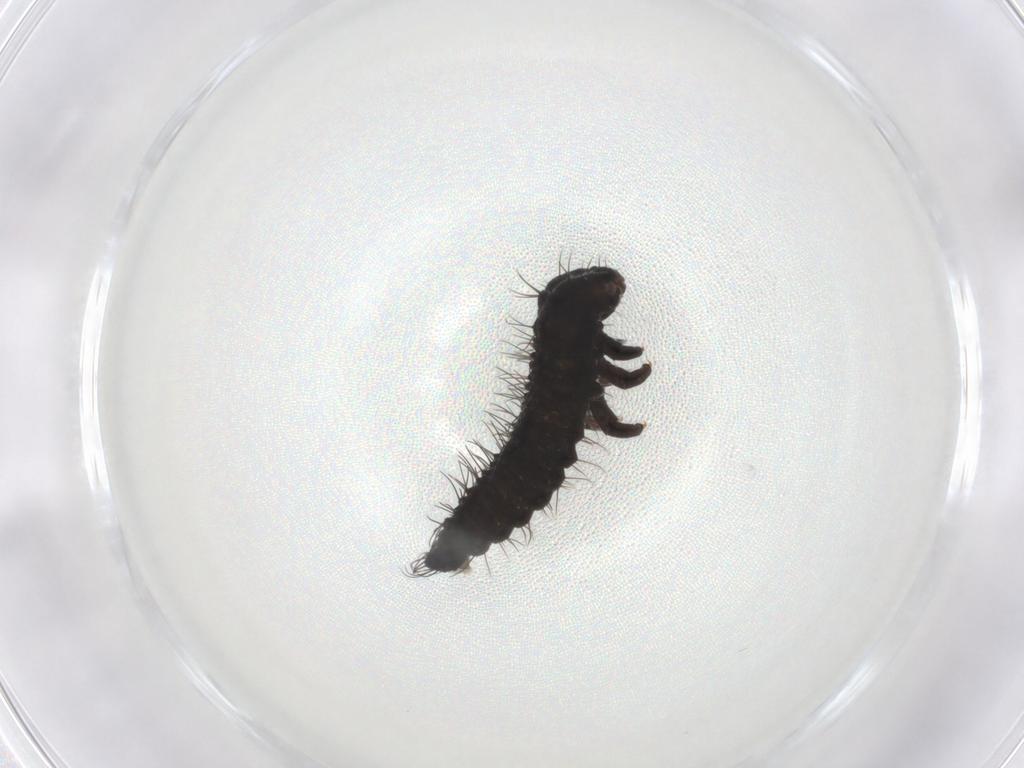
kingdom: Animalia
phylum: Arthropoda
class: Insecta
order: Coleoptera
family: Chrysomelidae
